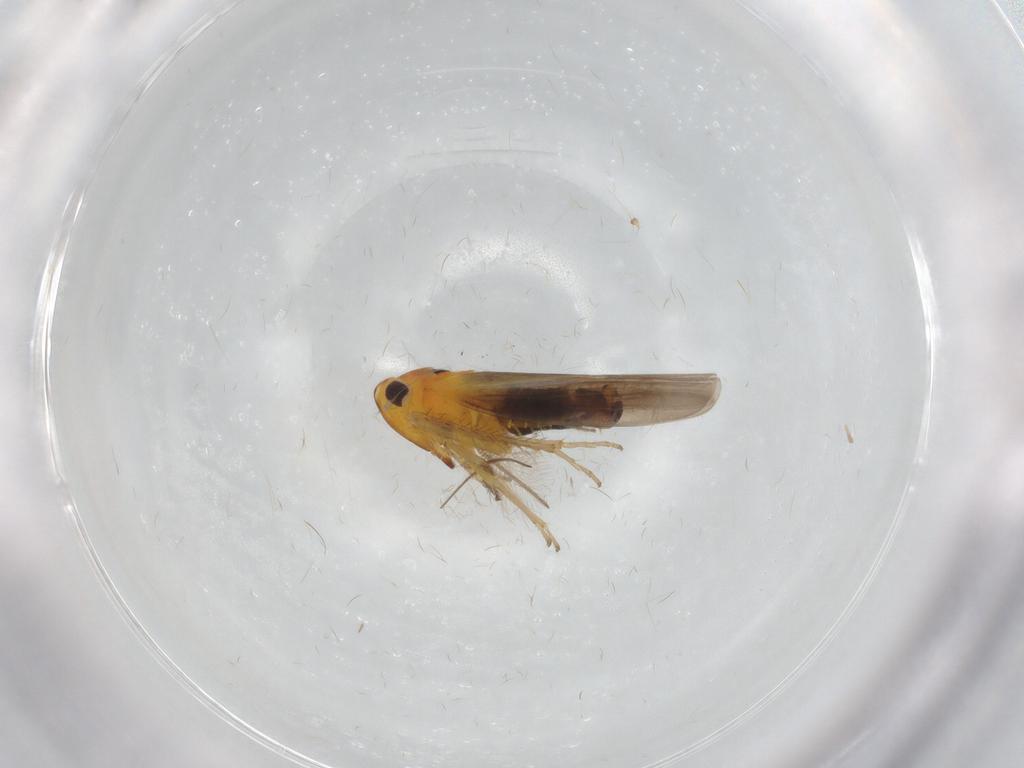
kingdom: Animalia
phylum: Arthropoda
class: Insecta
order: Hemiptera
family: Cicadellidae
